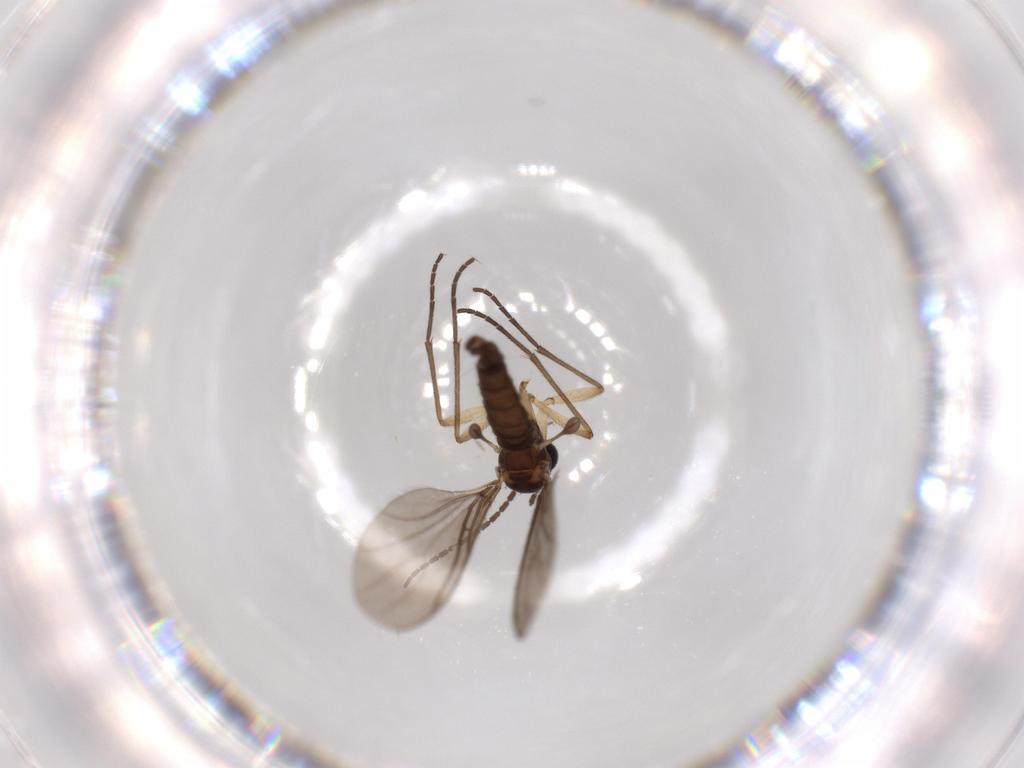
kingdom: Animalia
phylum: Arthropoda
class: Insecta
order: Diptera
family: Sciaridae
